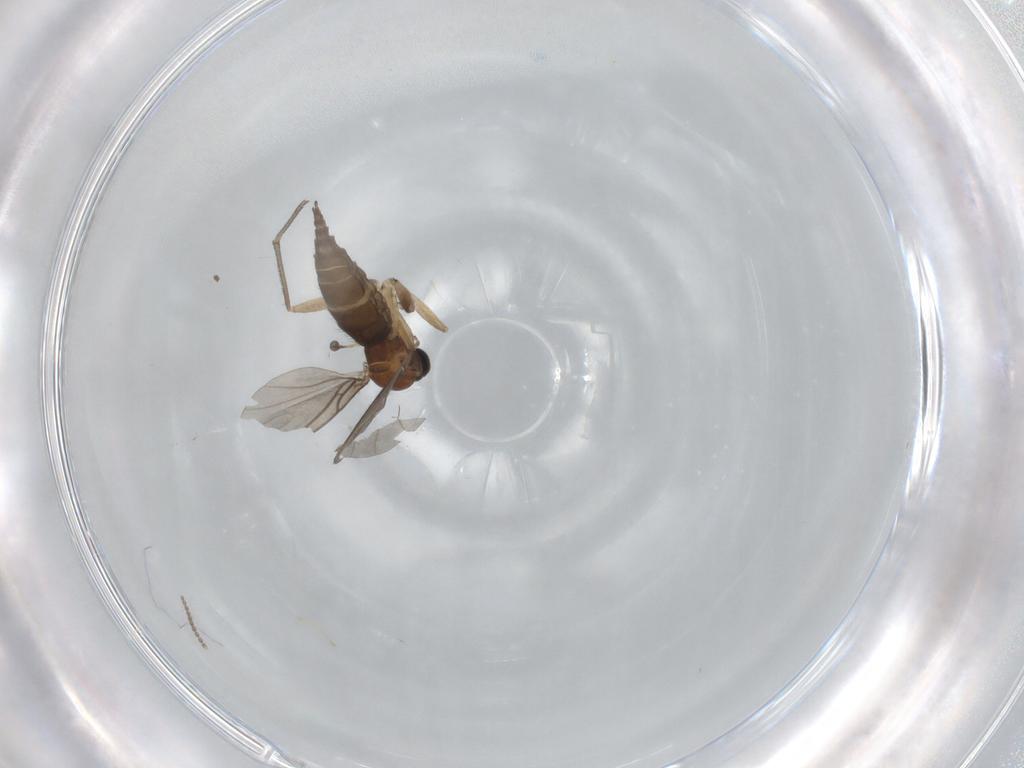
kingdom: Animalia
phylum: Arthropoda
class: Insecta
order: Diptera
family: Sciaridae
